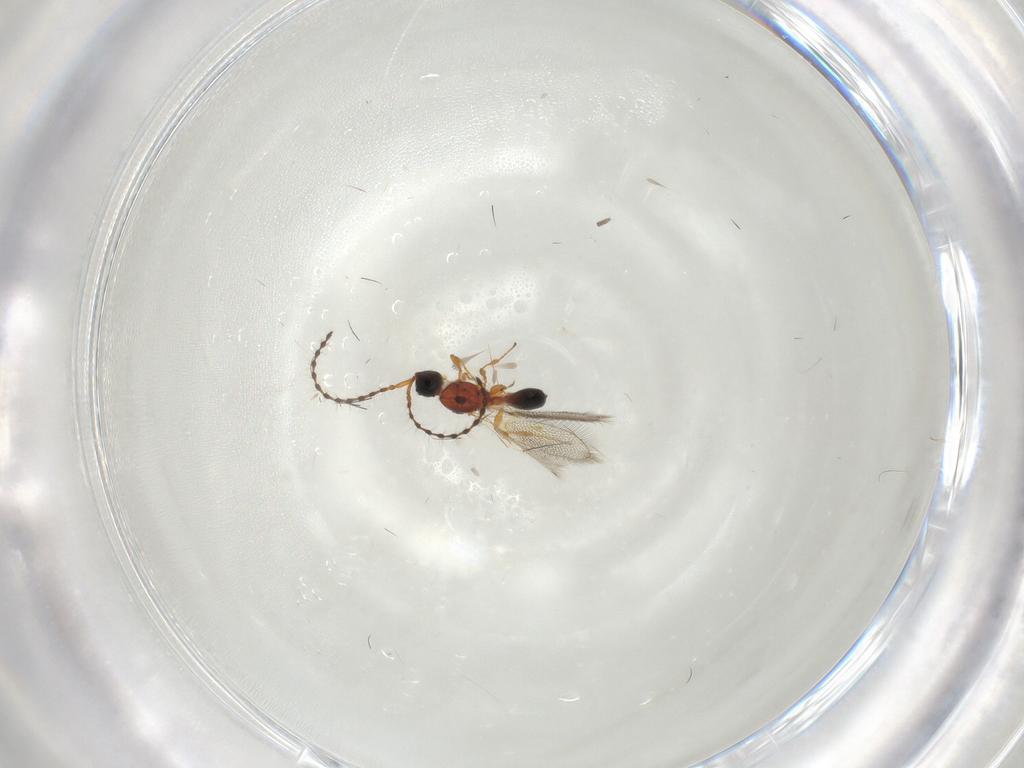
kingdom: Animalia
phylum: Arthropoda
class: Insecta
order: Hymenoptera
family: Diapriidae
